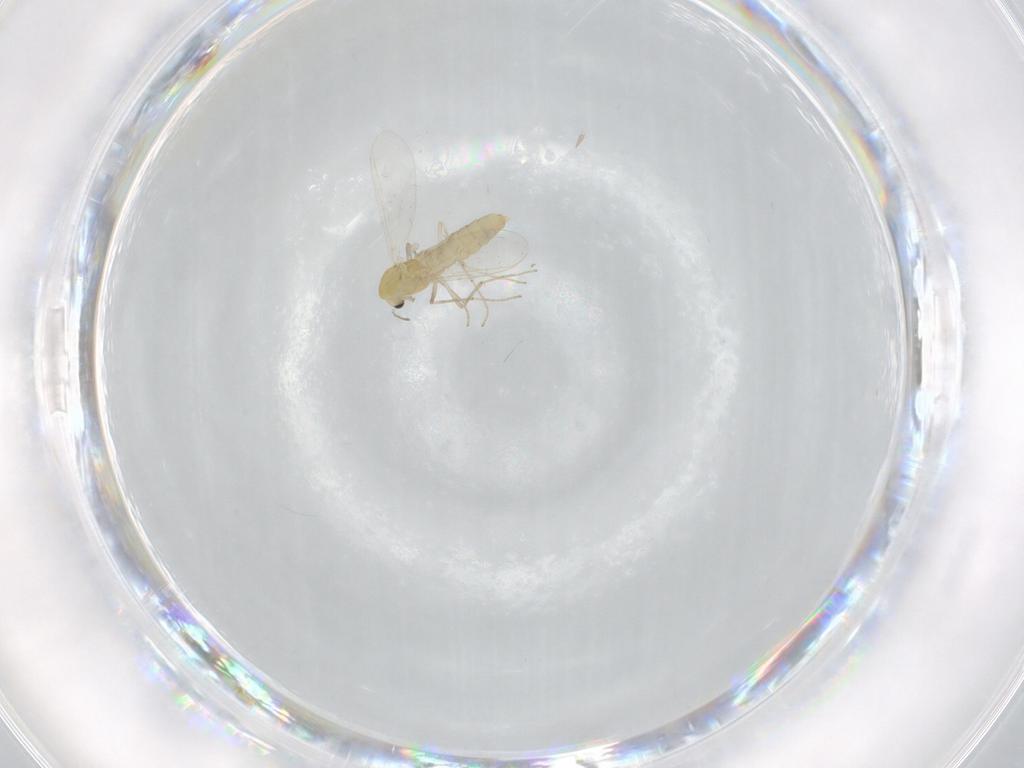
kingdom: Animalia
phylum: Arthropoda
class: Insecta
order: Diptera
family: Chironomidae
